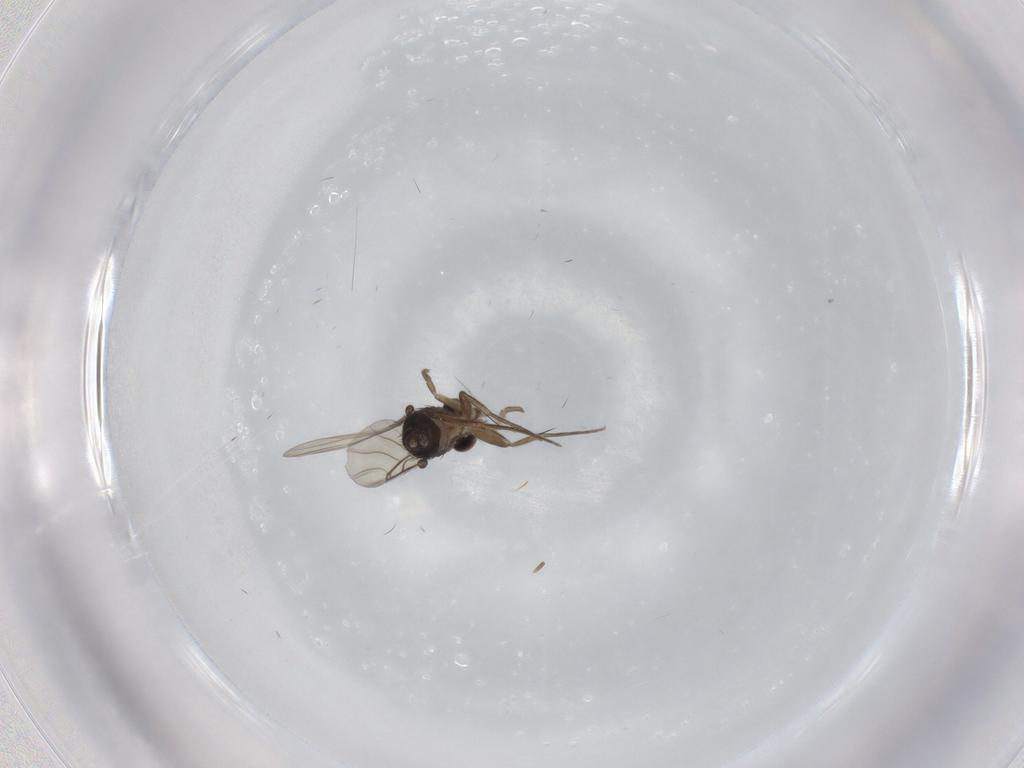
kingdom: Animalia
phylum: Arthropoda
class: Insecta
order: Diptera
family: Phoridae
